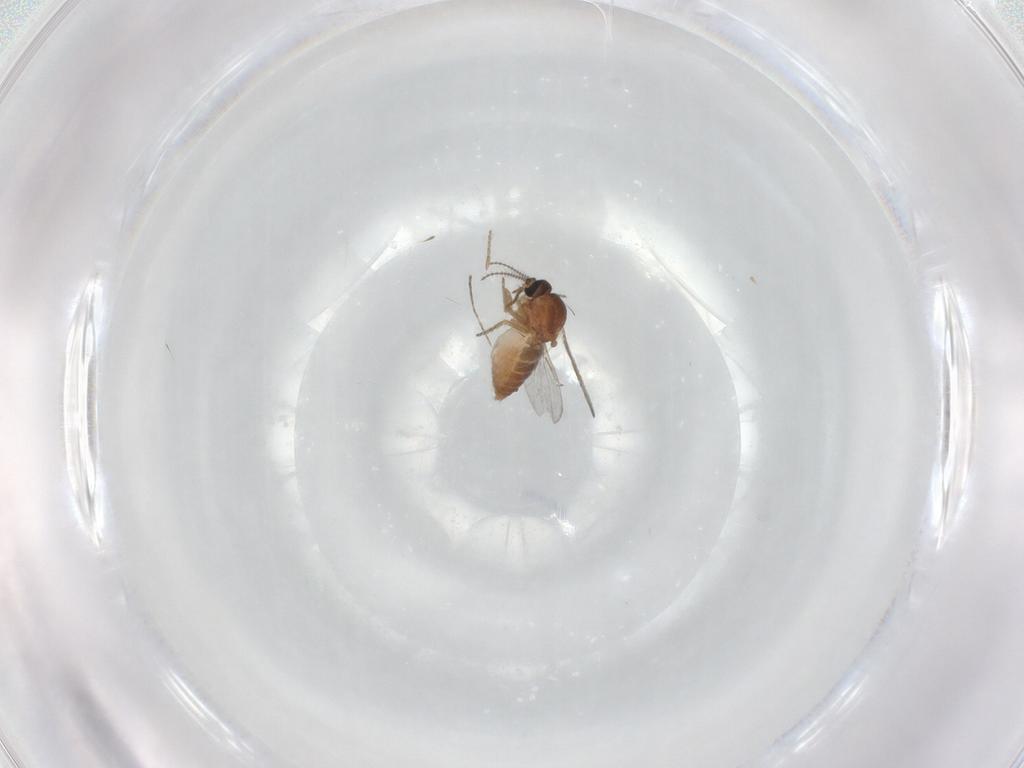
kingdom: Animalia
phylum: Arthropoda
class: Insecta
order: Diptera
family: Ceratopogonidae
